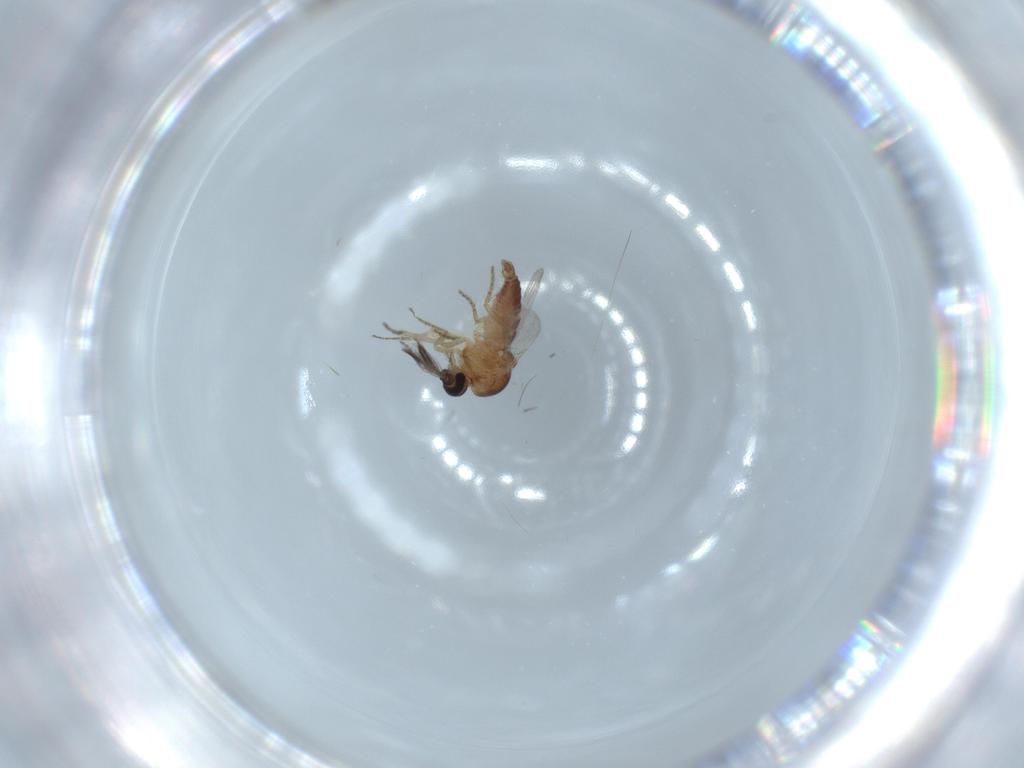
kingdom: Animalia
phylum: Arthropoda
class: Insecta
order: Diptera
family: Ceratopogonidae
